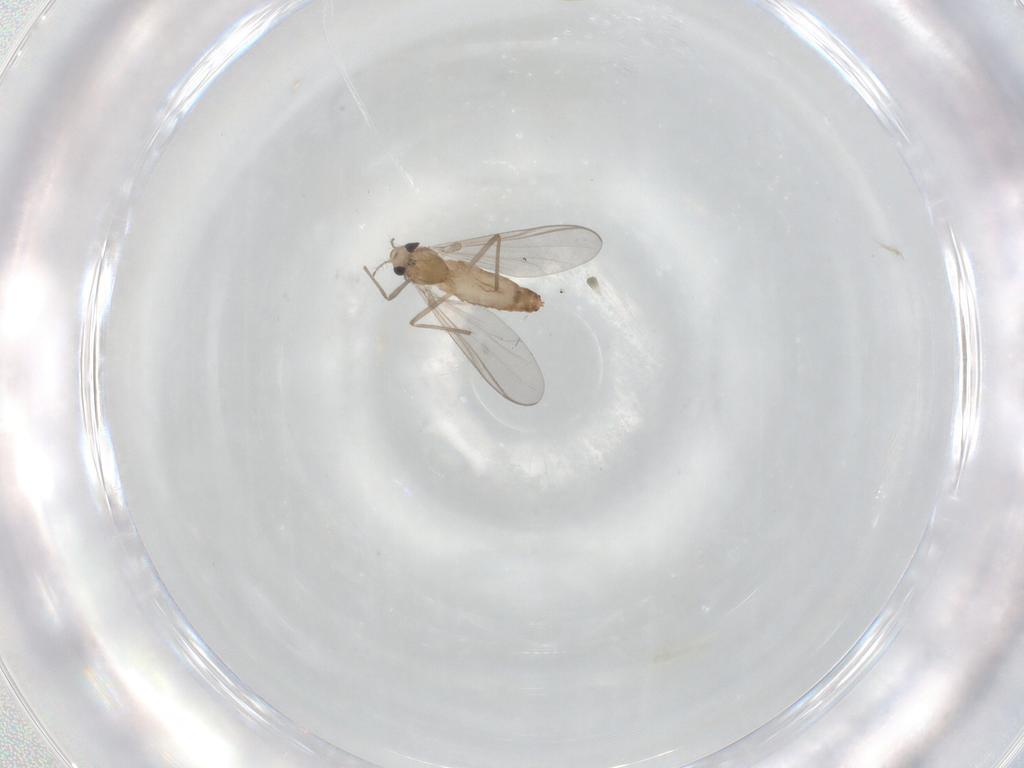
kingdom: Animalia
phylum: Arthropoda
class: Insecta
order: Diptera
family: Chironomidae
